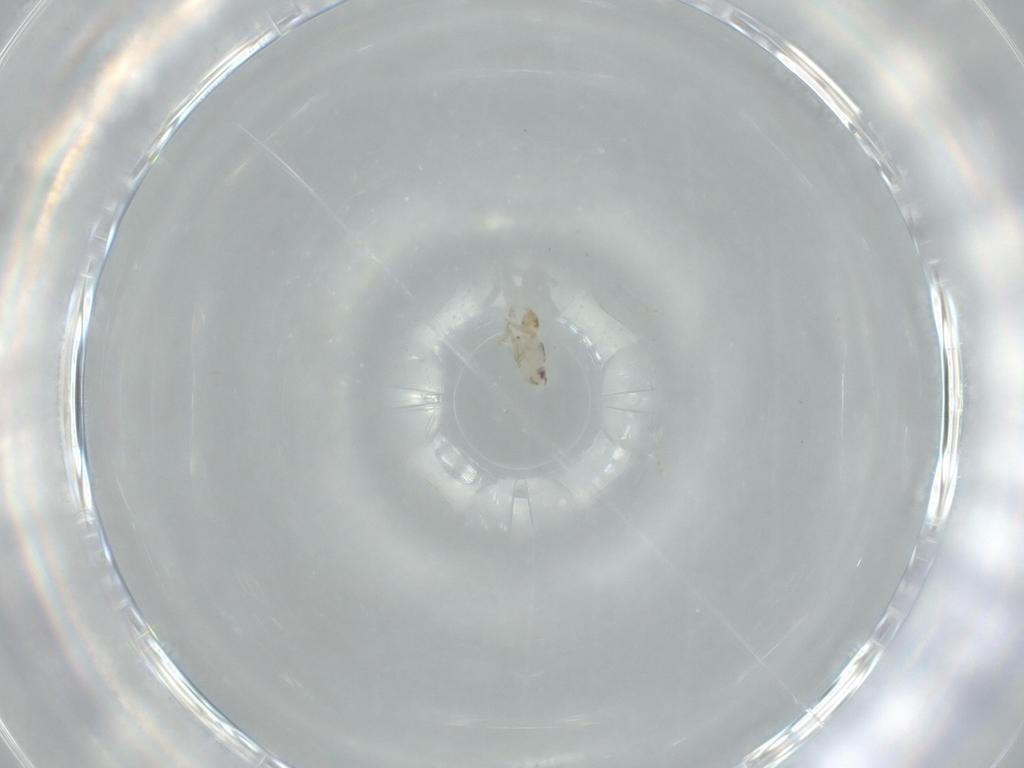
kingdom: Animalia
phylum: Arthropoda
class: Insecta
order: Hemiptera
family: Delphacidae
